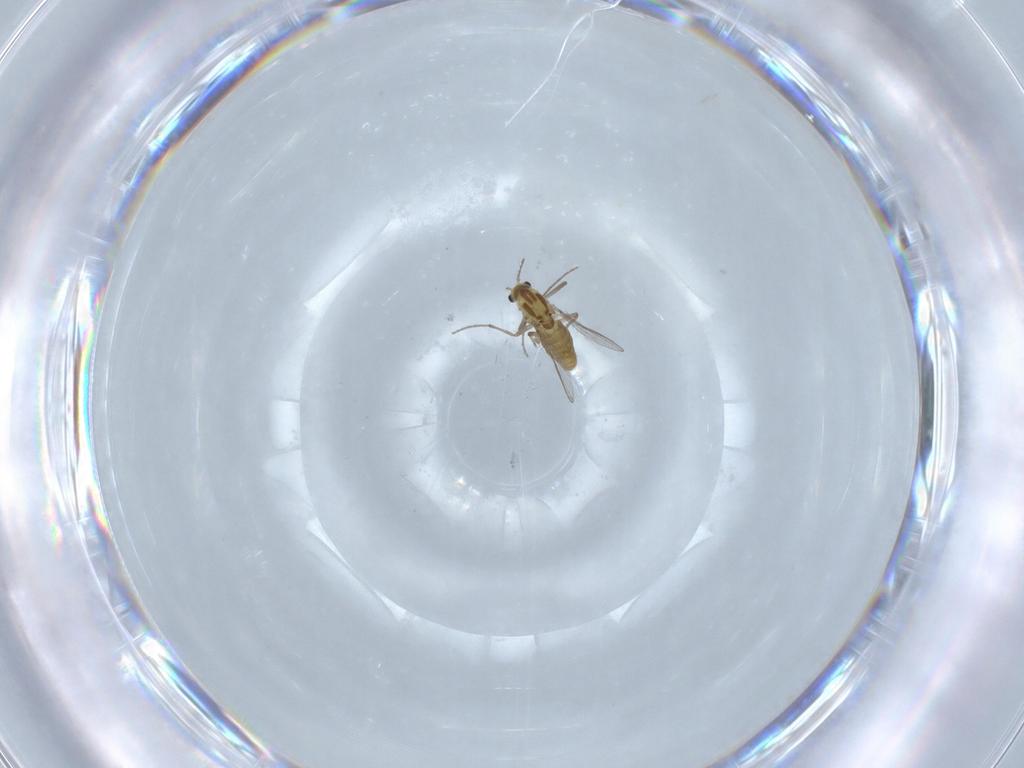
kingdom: Animalia
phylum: Arthropoda
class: Insecta
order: Diptera
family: Chironomidae
